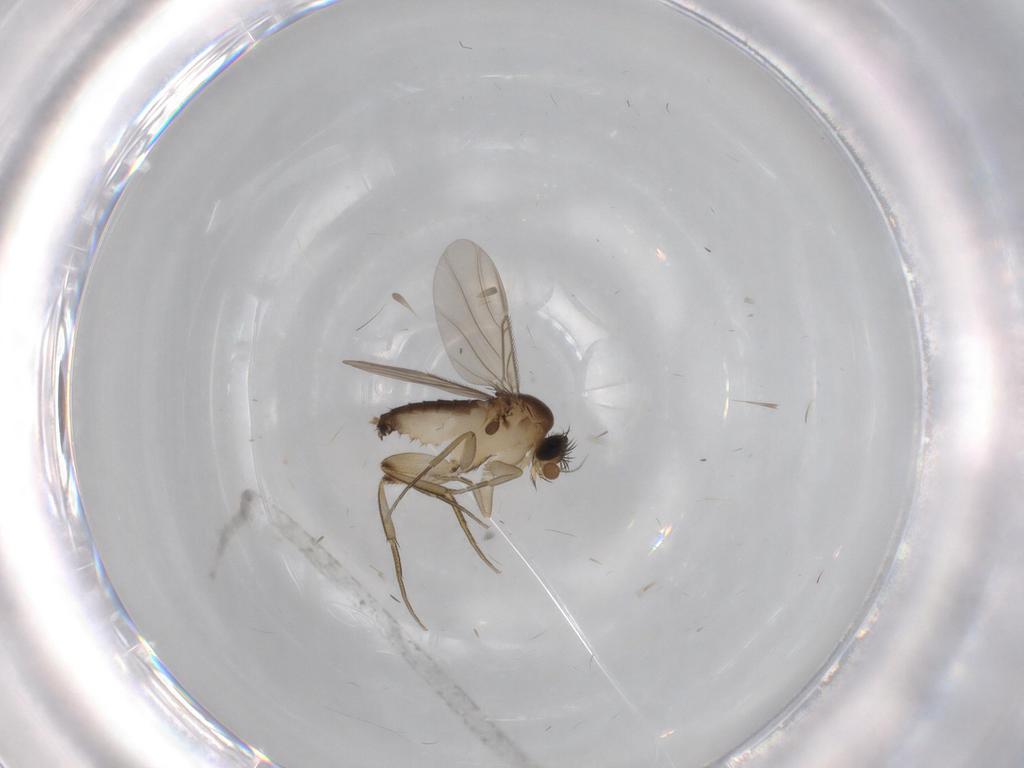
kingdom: Animalia
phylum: Arthropoda
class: Insecta
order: Diptera
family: Phoridae
